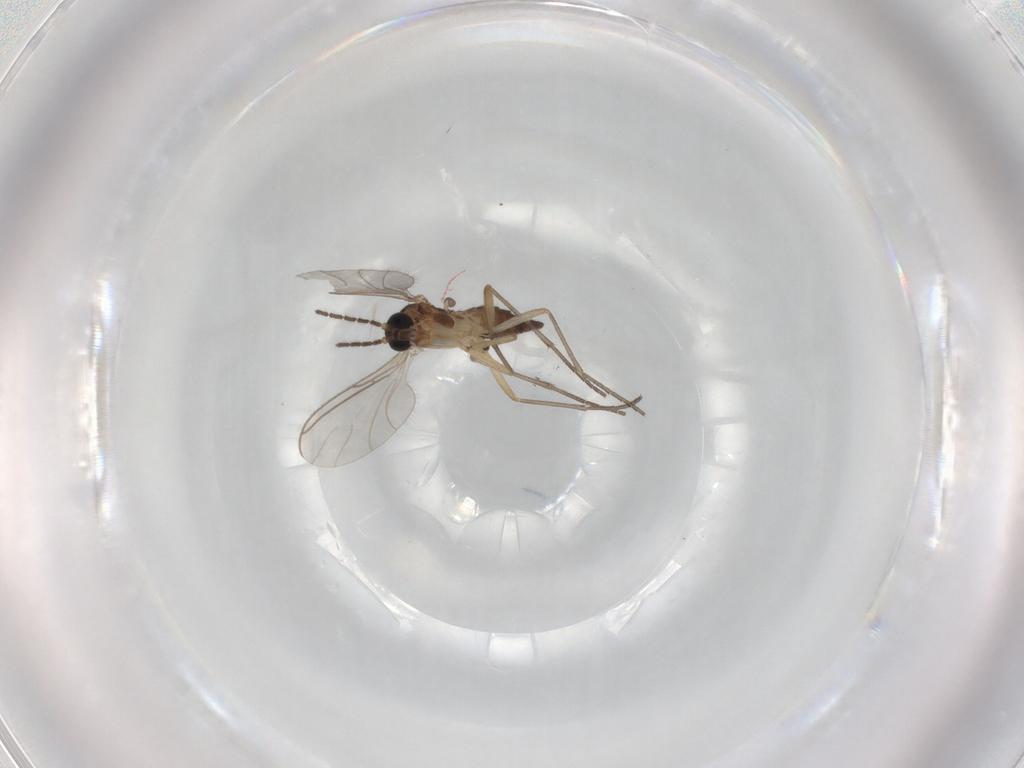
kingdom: Animalia
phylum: Arthropoda
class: Insecta
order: Diptera
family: Sciaridae
